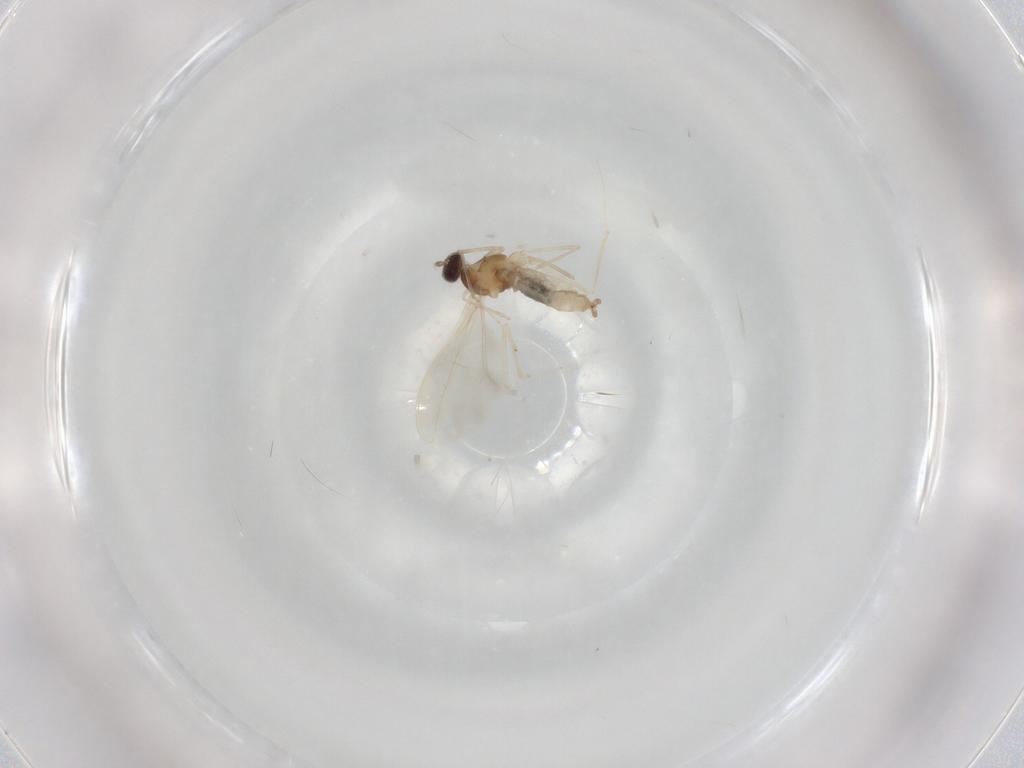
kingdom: Animalia
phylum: Arthropoda
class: Insecta
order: Diptera
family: Cecidomyiidae
